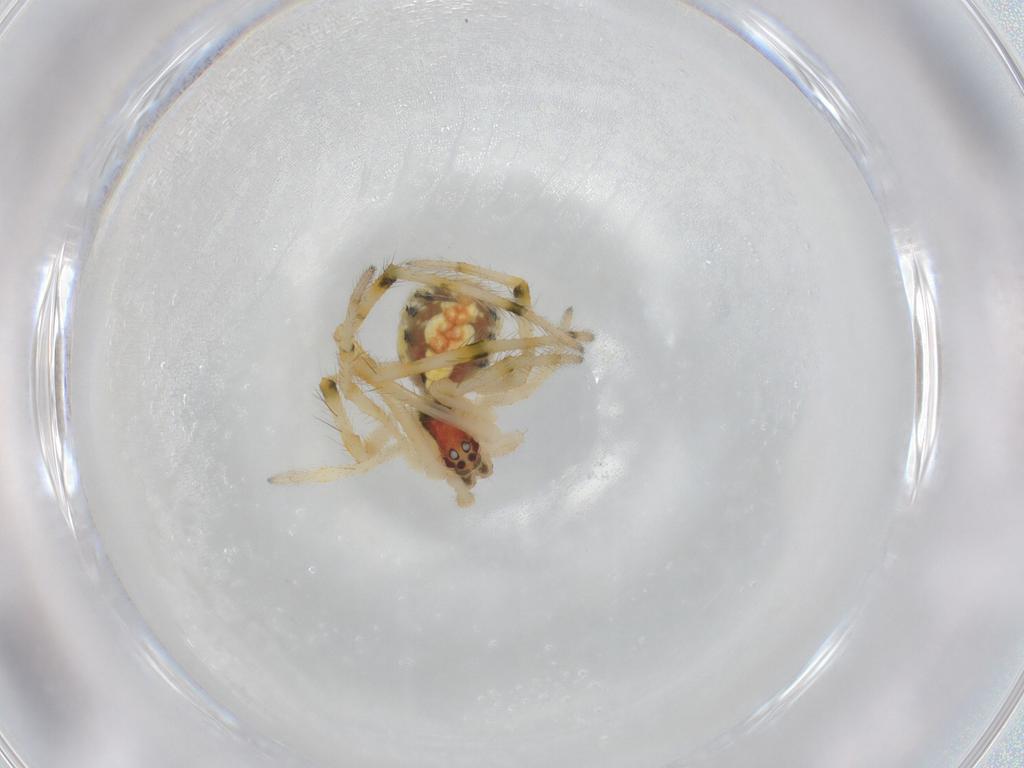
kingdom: Animalia
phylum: Arthropoda
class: Arachnida
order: Araneae
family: Theridiidae
